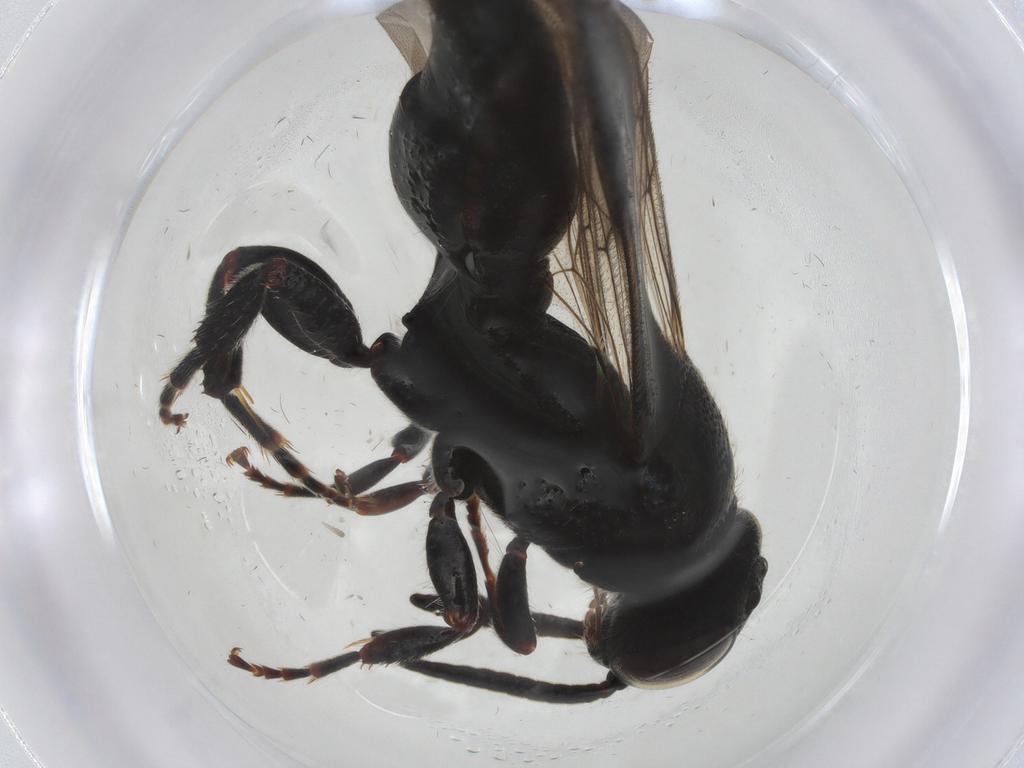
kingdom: Animalia
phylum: Arthropoda
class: Insecta
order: Hymenoptera
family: Tiphiidae
